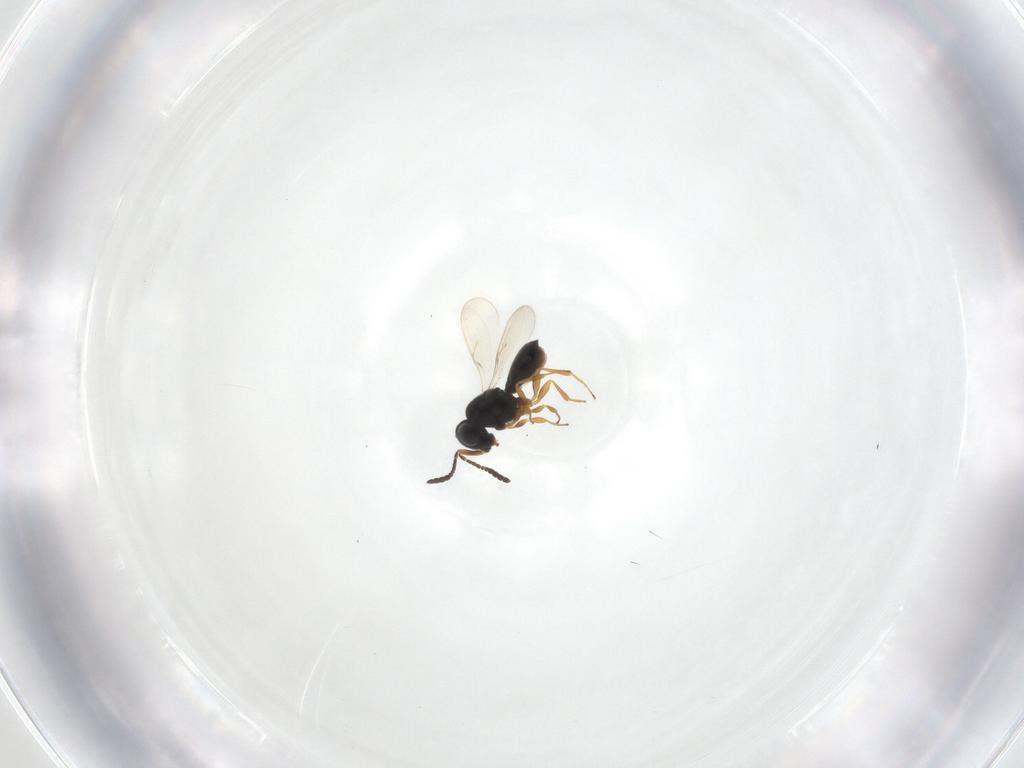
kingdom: Animalia
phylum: Arthropoda
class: Insecta
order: Hymenoptera
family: Scelionidae
